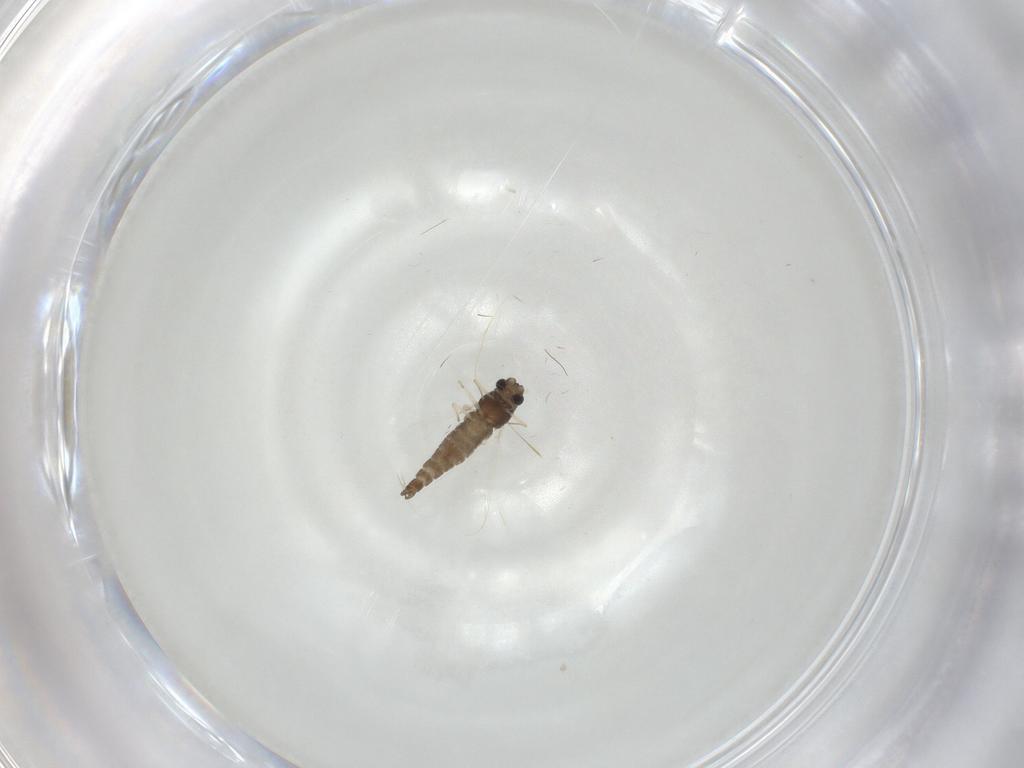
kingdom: Animalia
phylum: Arthropoda
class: Insecta
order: Diptera
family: Chironomidae
